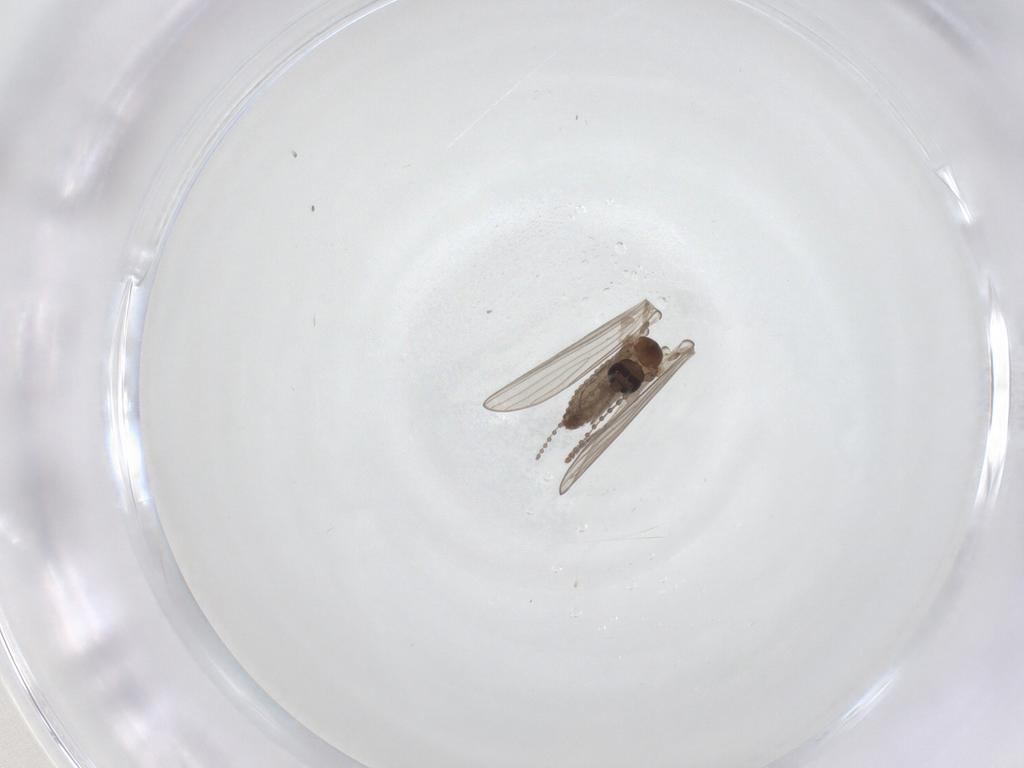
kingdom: Animalia
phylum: Arthropoda
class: Insecta
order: Diptera
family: Psychodidae
